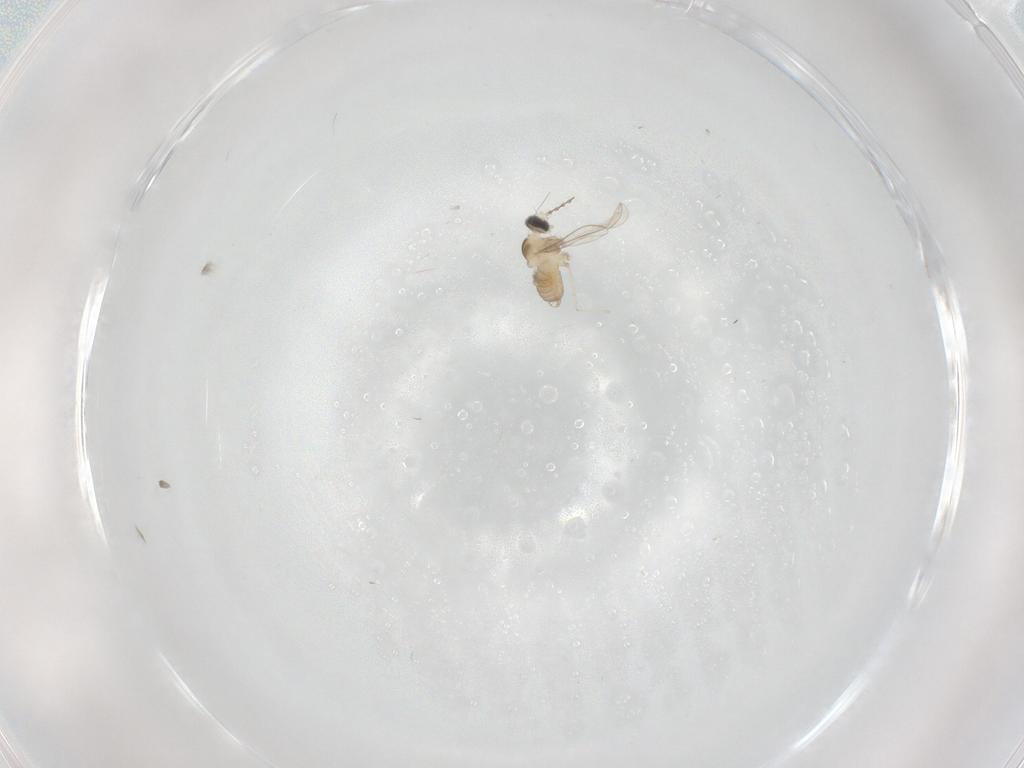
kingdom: Animalia
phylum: Arthropoda
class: Insecta
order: Diptera
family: Cecidomyiidae
